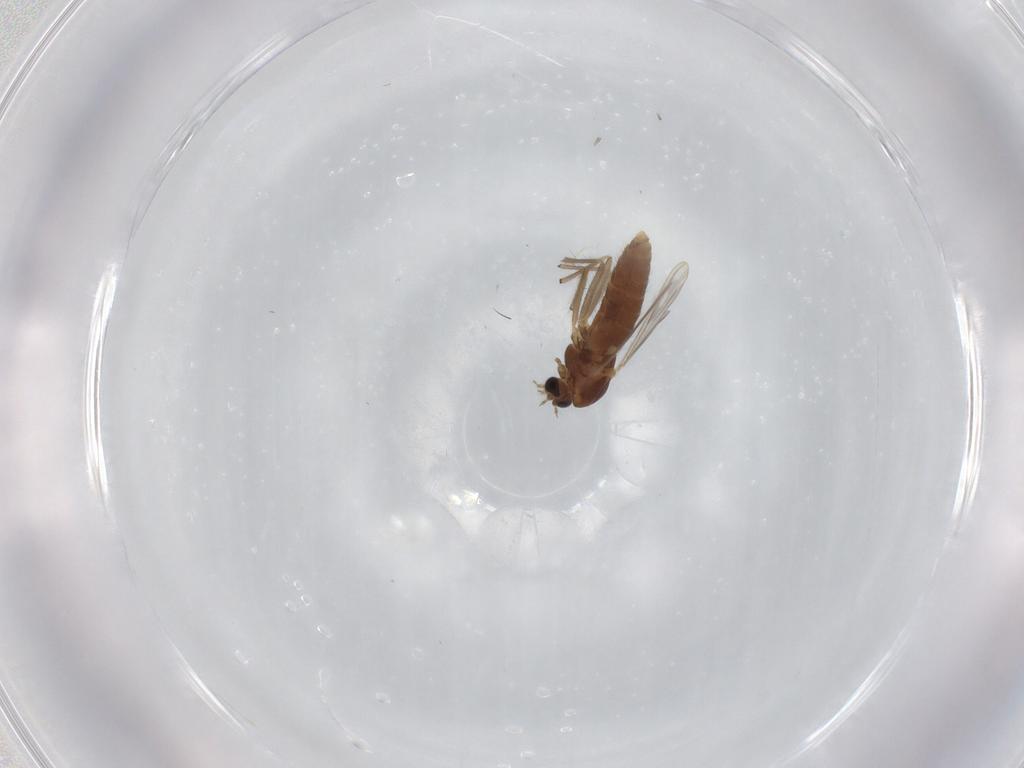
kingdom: Animalia
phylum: Arthropoda
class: Insecta
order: Diptera
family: Chironomidae
